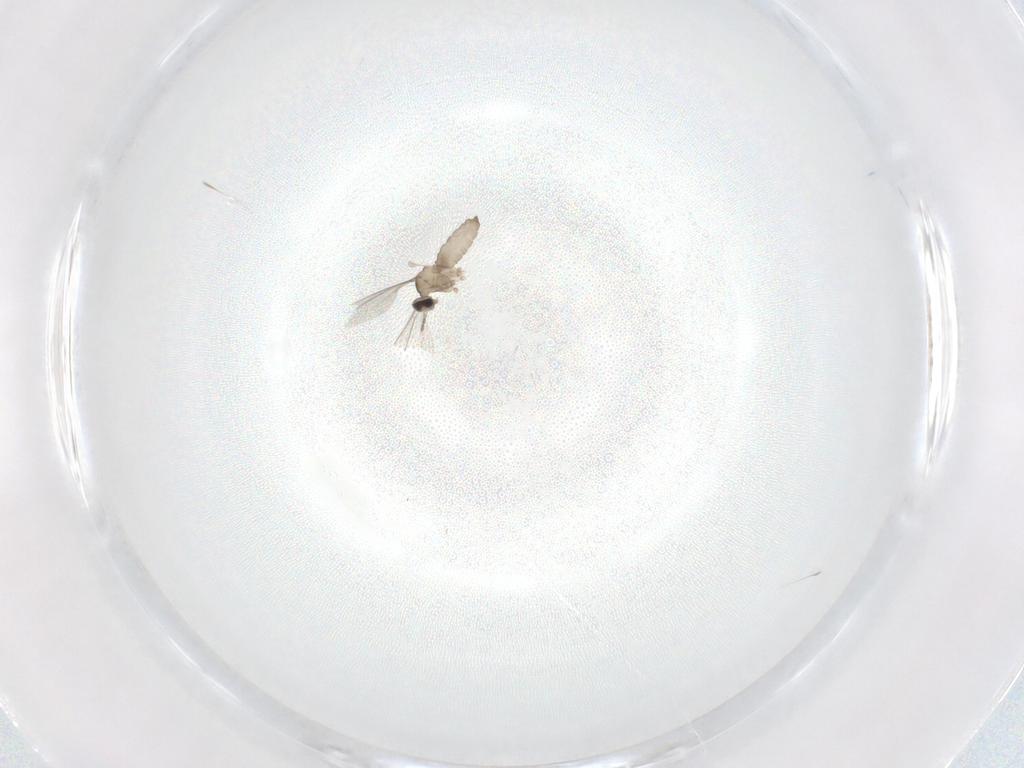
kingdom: Animalia
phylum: Arthropoda
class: Insecta
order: Diptera
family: Cecidomyiidae
